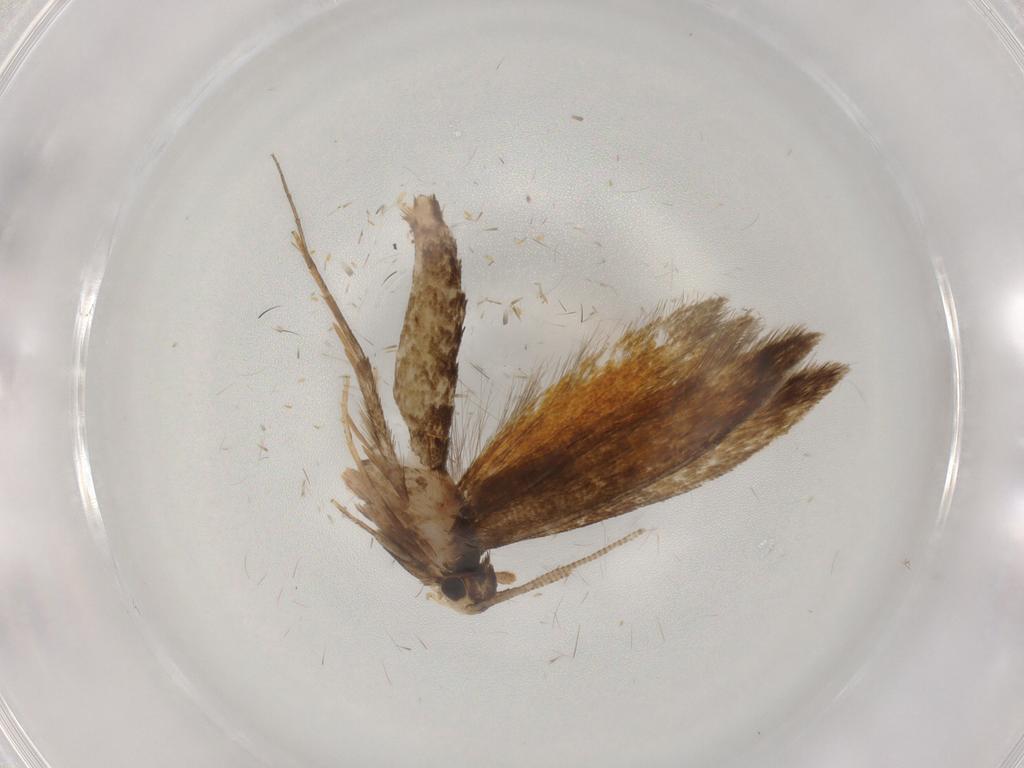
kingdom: Animalia
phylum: Arthropoda
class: Insecta
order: Lepidoptera
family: Tineidae
